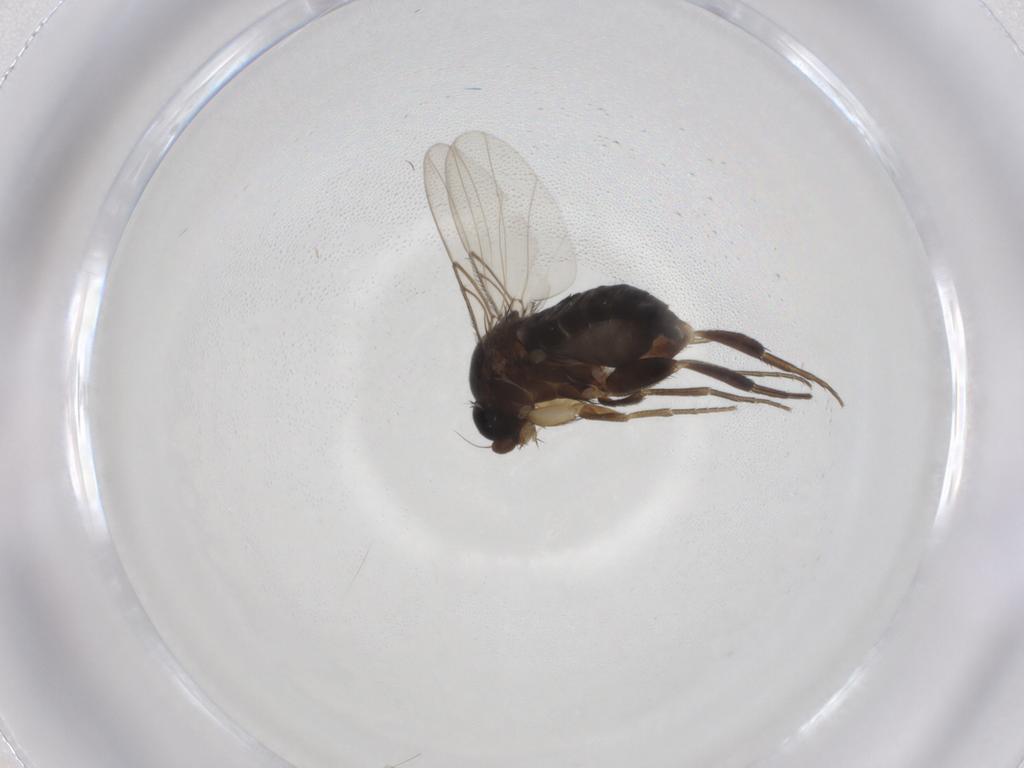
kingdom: Animalia
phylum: Arthropoda
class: Insecta
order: Diptera
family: Phoridae
